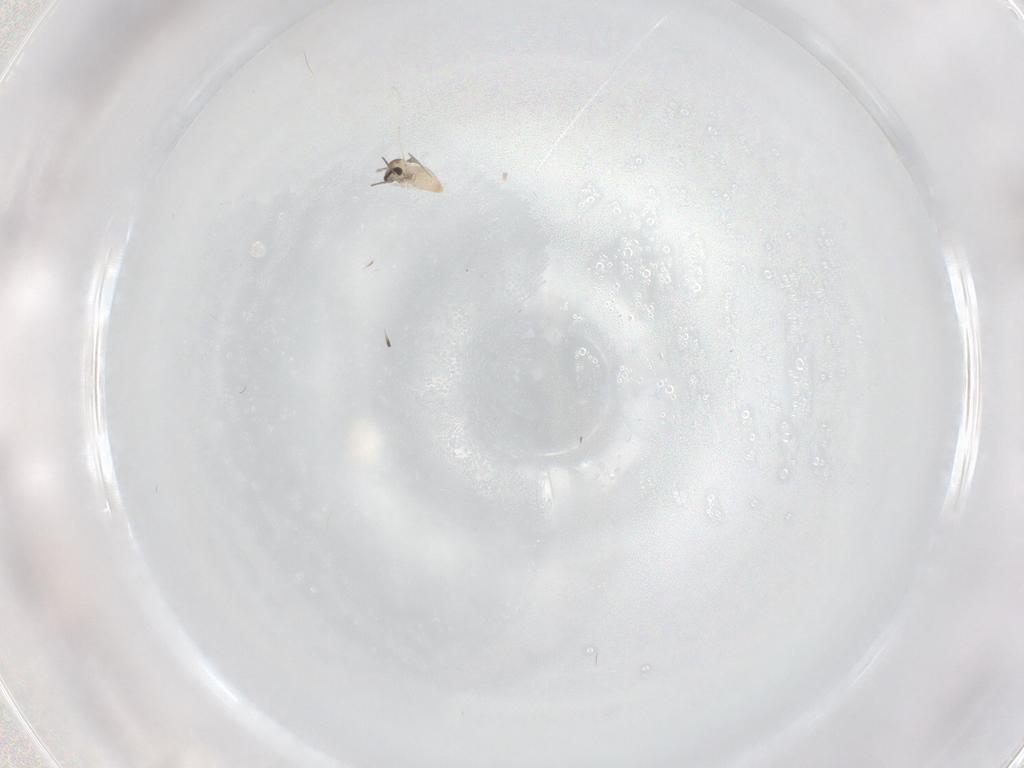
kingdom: Animalia
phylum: Arthropoda
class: Insecta
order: Diptera
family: Cecidomyiidae
